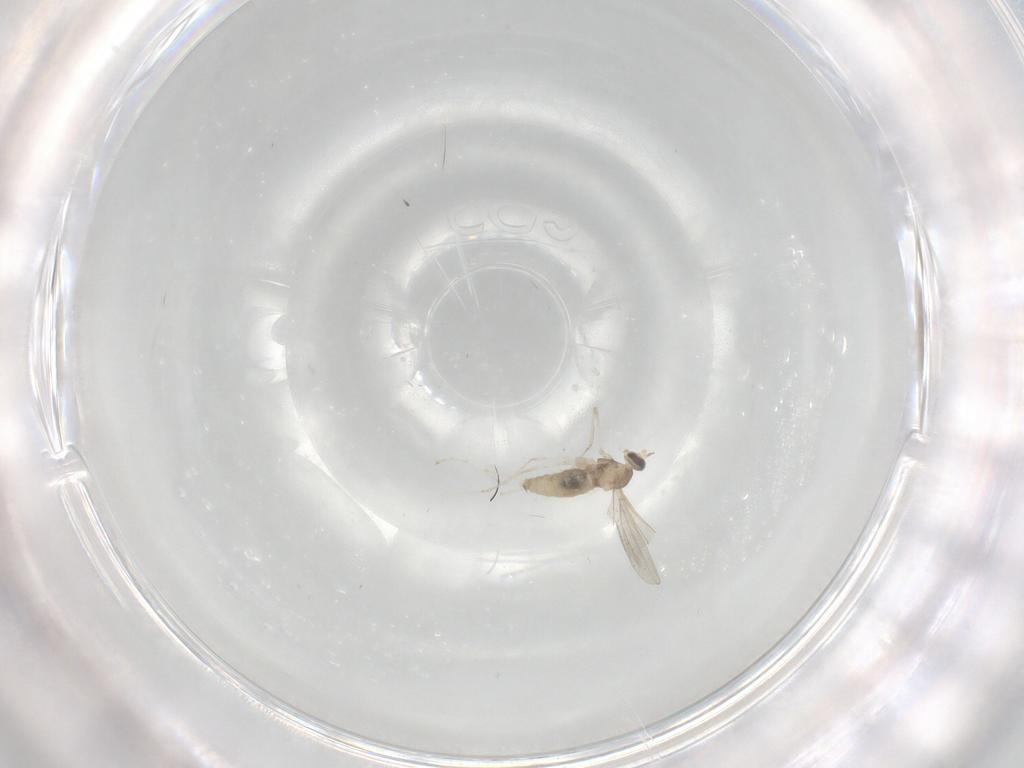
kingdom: Animalia
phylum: Arthropoda
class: Insecta
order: Diptera
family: Cecidomyiidae
